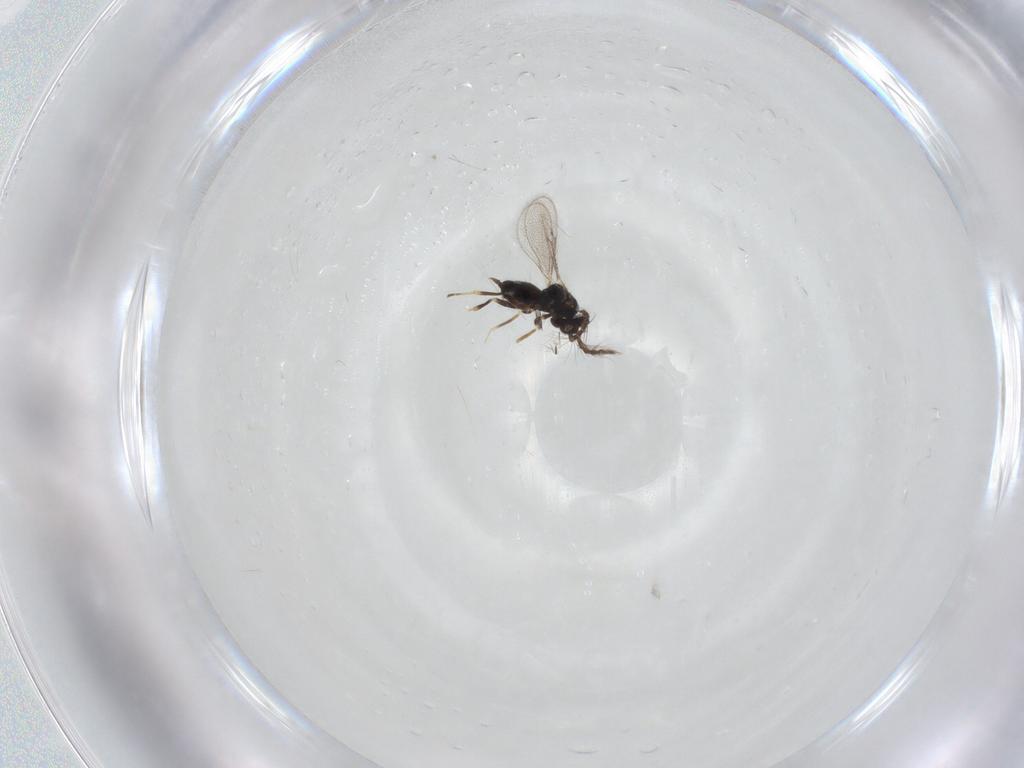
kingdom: Animalia
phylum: Arthropoda
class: Insecta
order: Hymenoptera
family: Eulophidae
